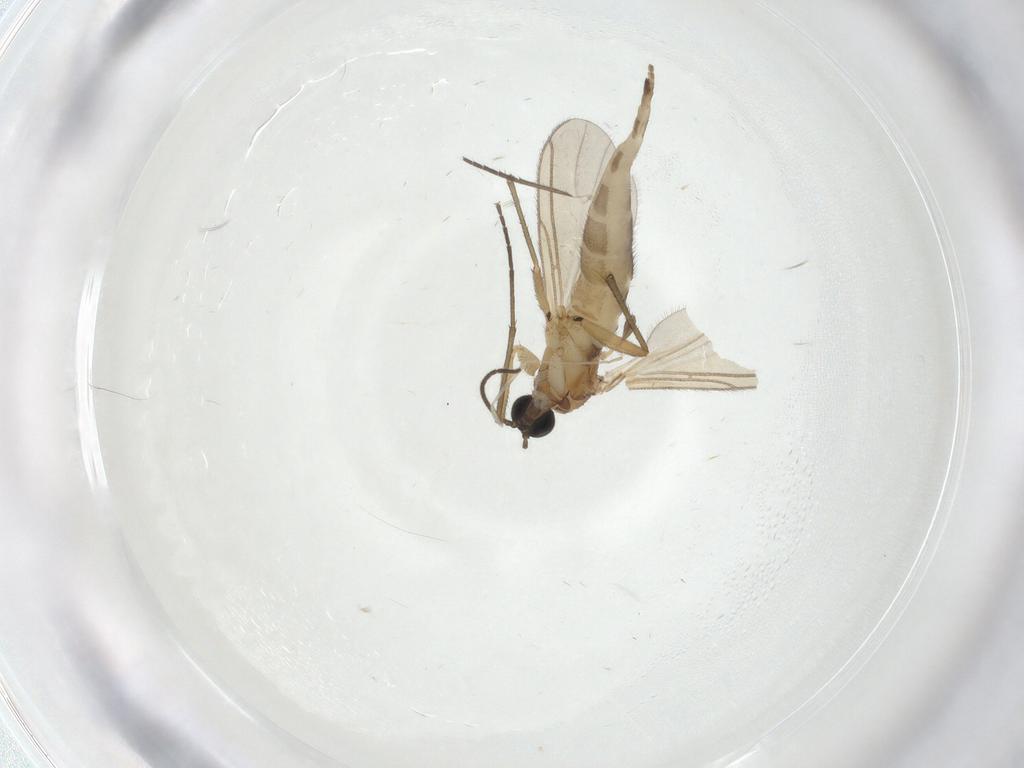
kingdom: Animalia
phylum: Arthropoda
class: Insecta
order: Diptera
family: Cecidomyiidae
